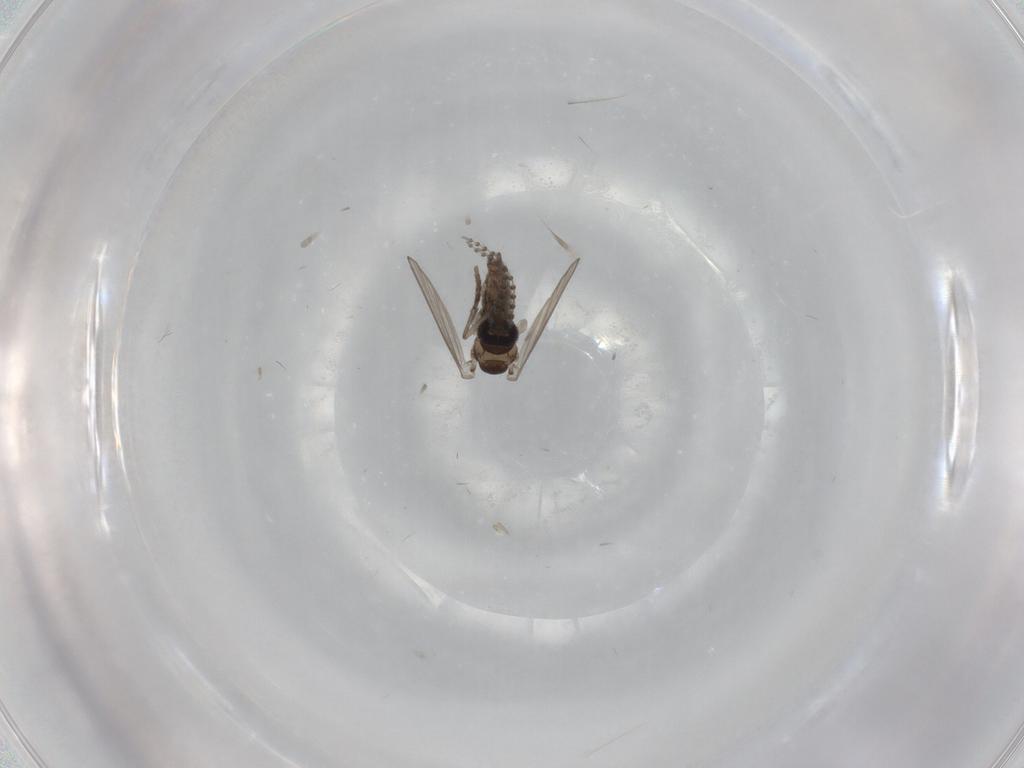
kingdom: Animalia
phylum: Arthropoda
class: Insecta
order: Diptera
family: Psychodidae
